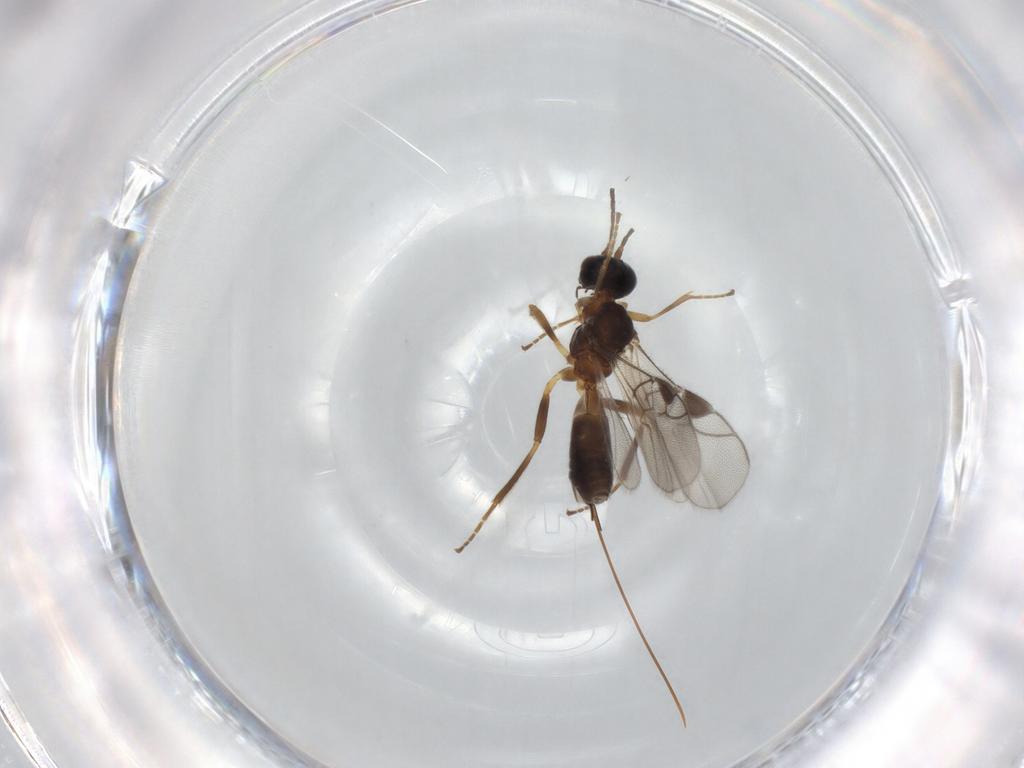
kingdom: Animalia
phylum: Arthropoda
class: Insecta
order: Hymenoptera
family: Braconidae
